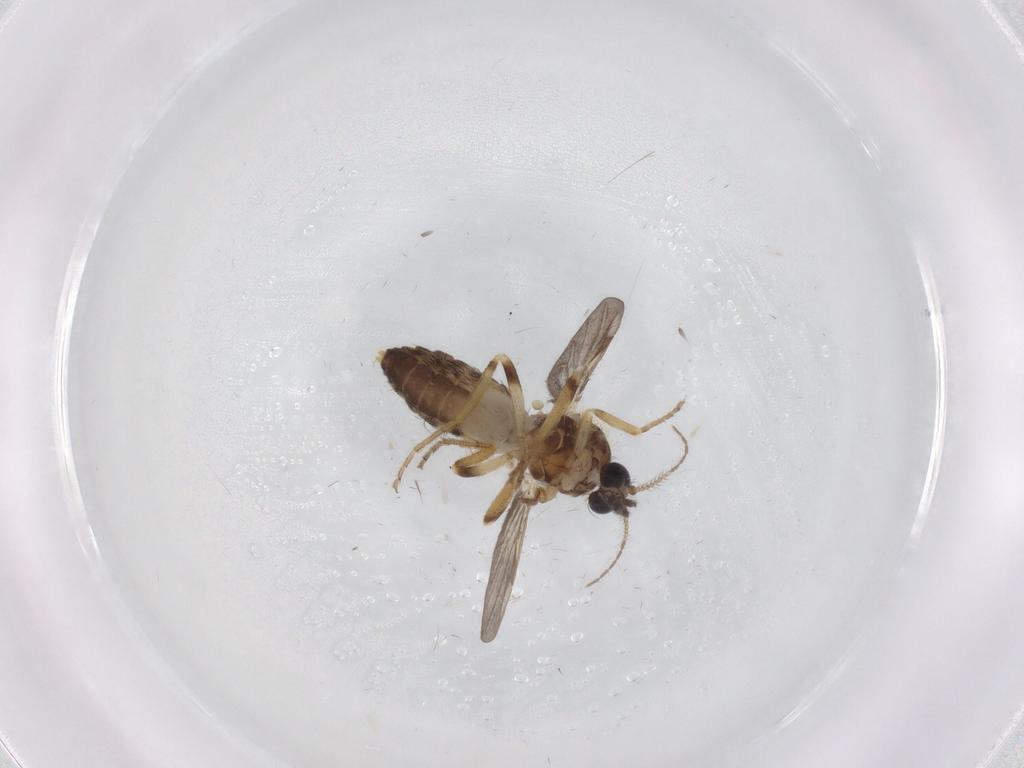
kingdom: Animalia
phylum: Arthropoda
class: Insecta
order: Diptera
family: Ceratopogonidae
